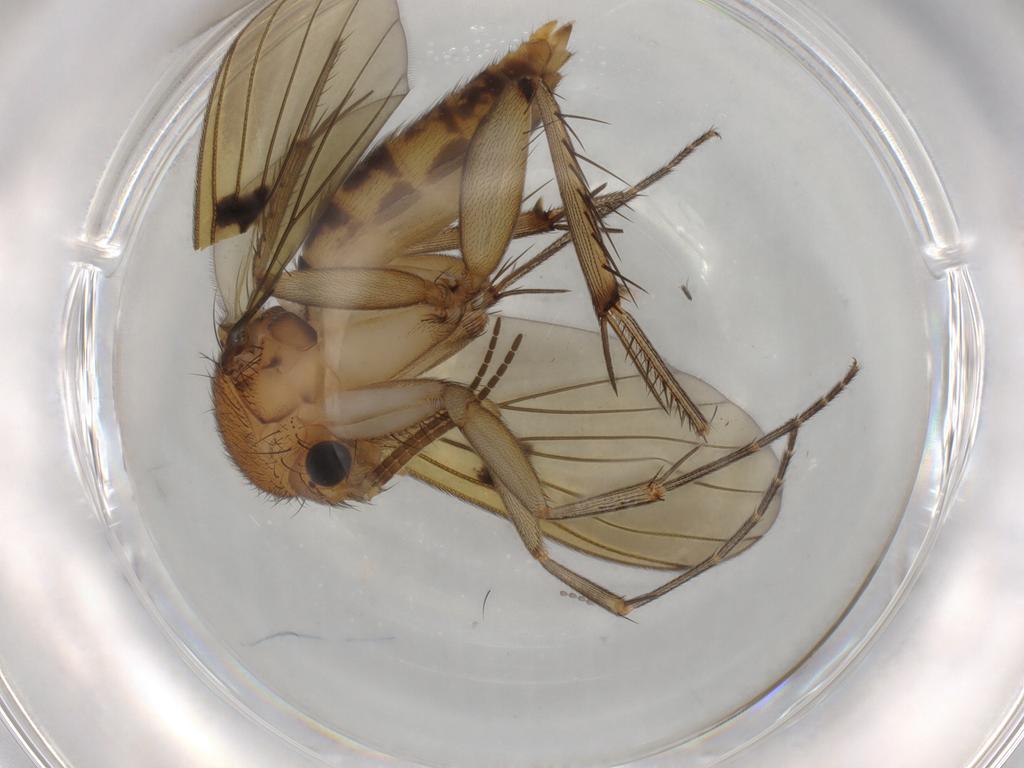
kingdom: Animalia
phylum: Arthropoda
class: Insecta
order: Diptera
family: Mycetophilidae
